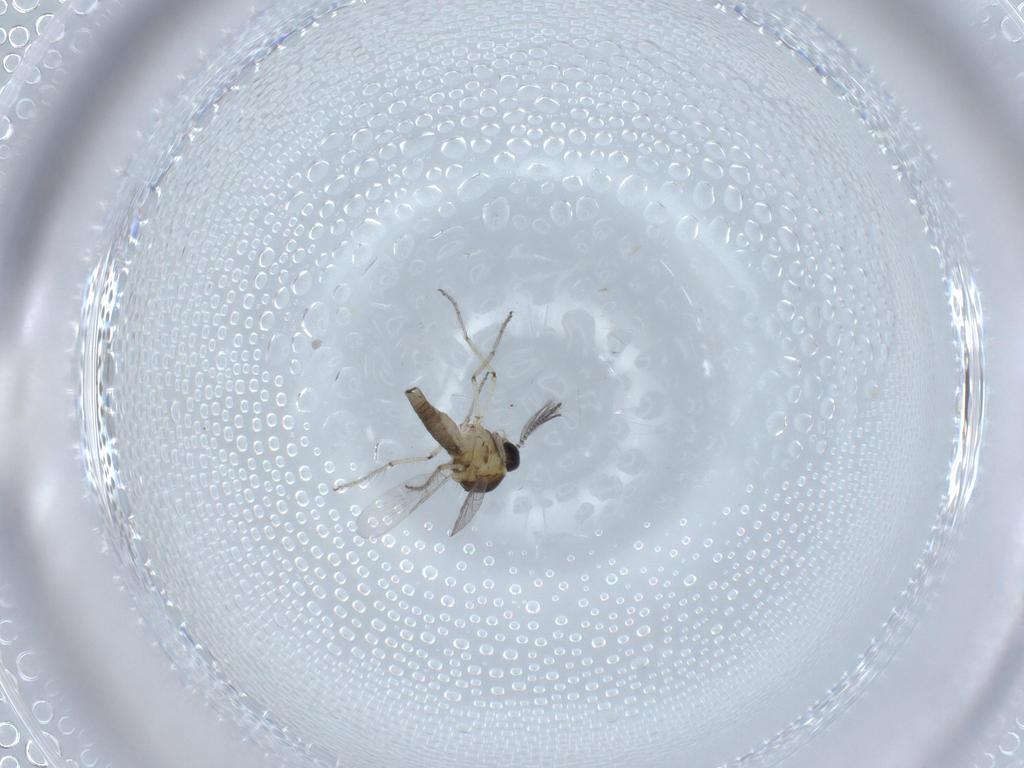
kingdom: Animalia
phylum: Arthropoda
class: Insecta
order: Diptera
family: Ceratopogonidae
